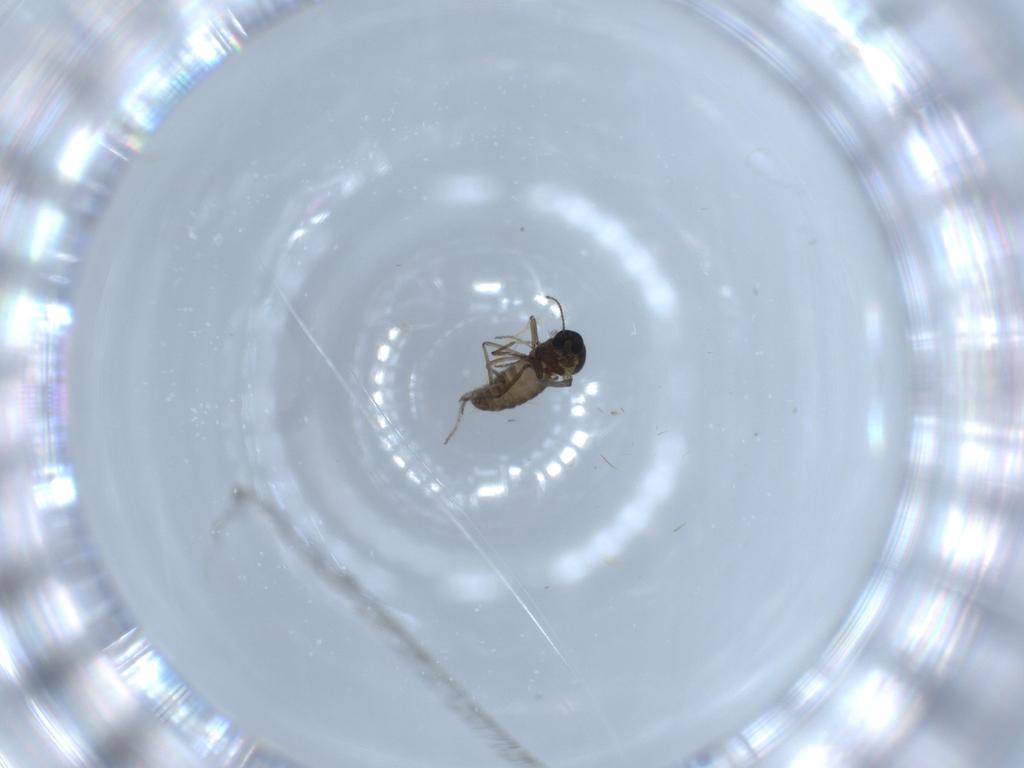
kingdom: Animalia
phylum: Arthropoda
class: Insecta
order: Diptera
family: Ceratopogonidae
